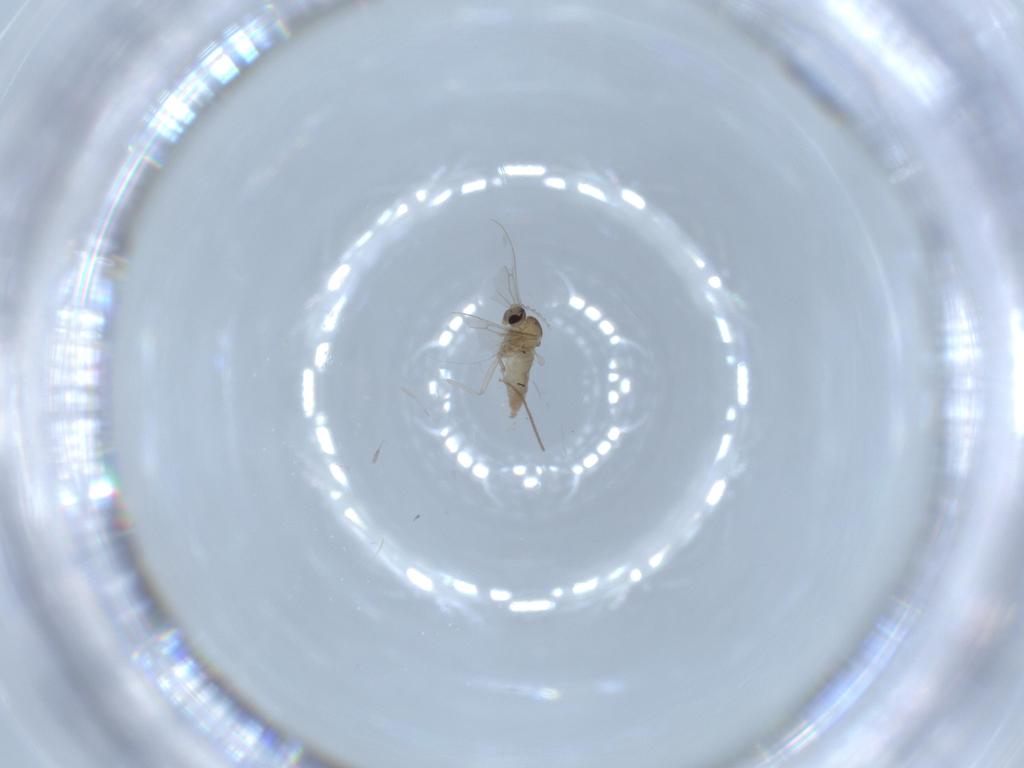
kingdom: Animalia
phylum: Arthropoda
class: Insecta
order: Diptera
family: Cecidomyiidae
